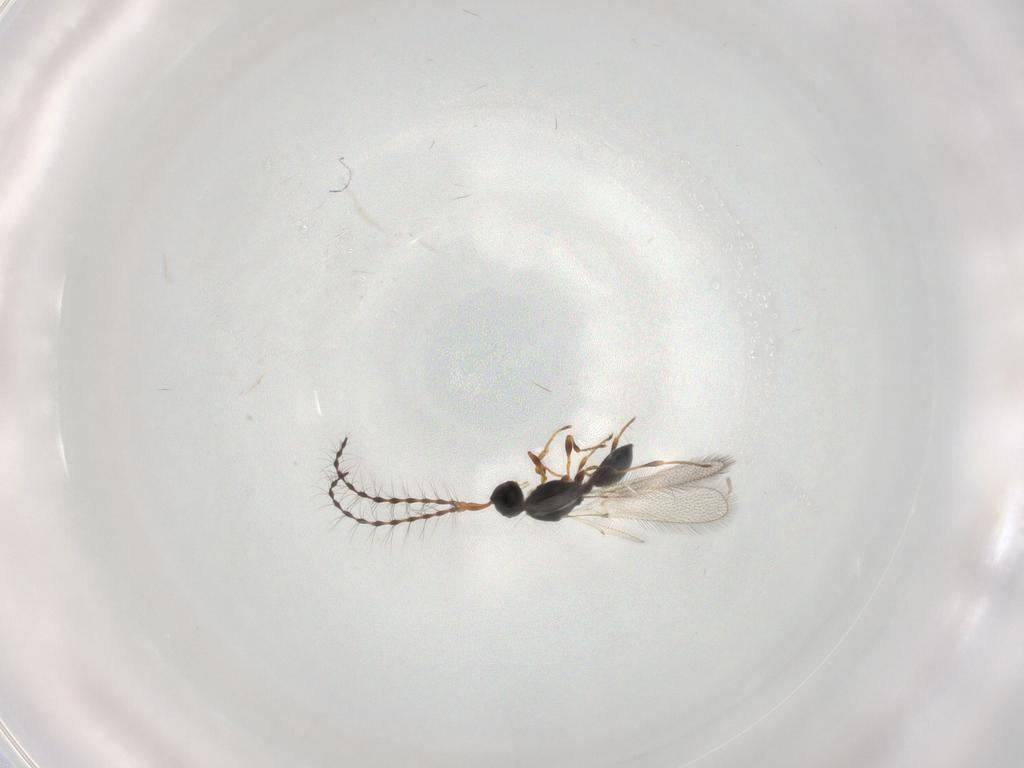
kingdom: Animalia
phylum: Arthropoda
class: Insecta
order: Hymenoptera
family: Diapriidae
